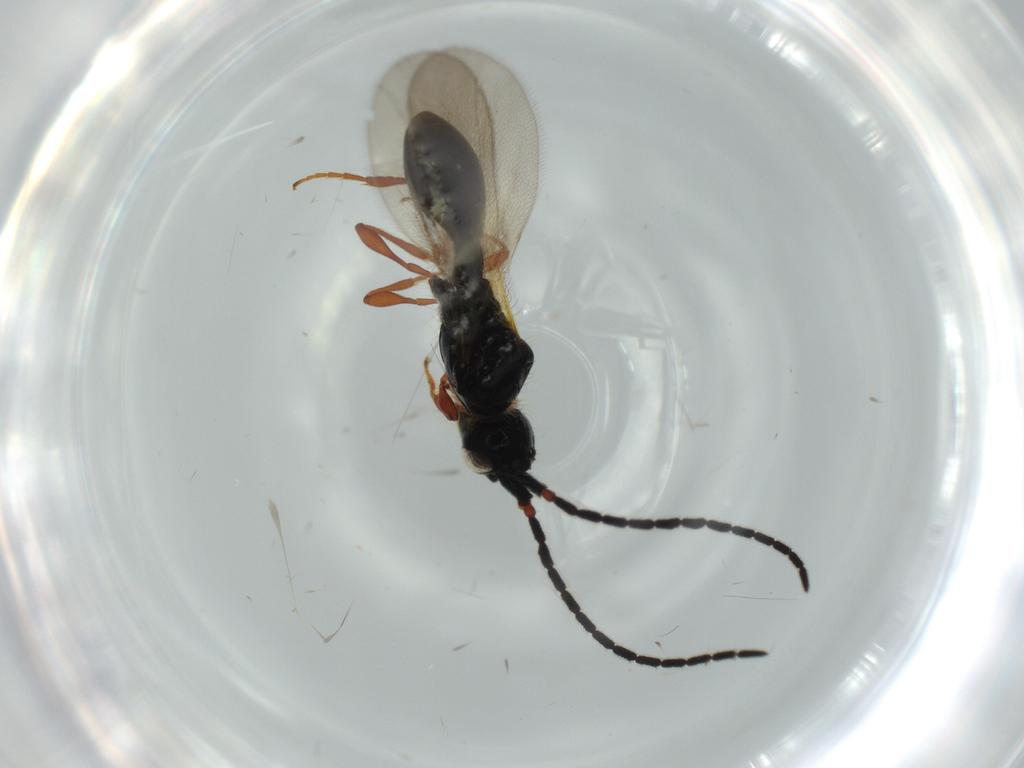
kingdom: Animalia
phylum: Arthropoda
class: Insecta
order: Hymenoptera
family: Diapriidae
